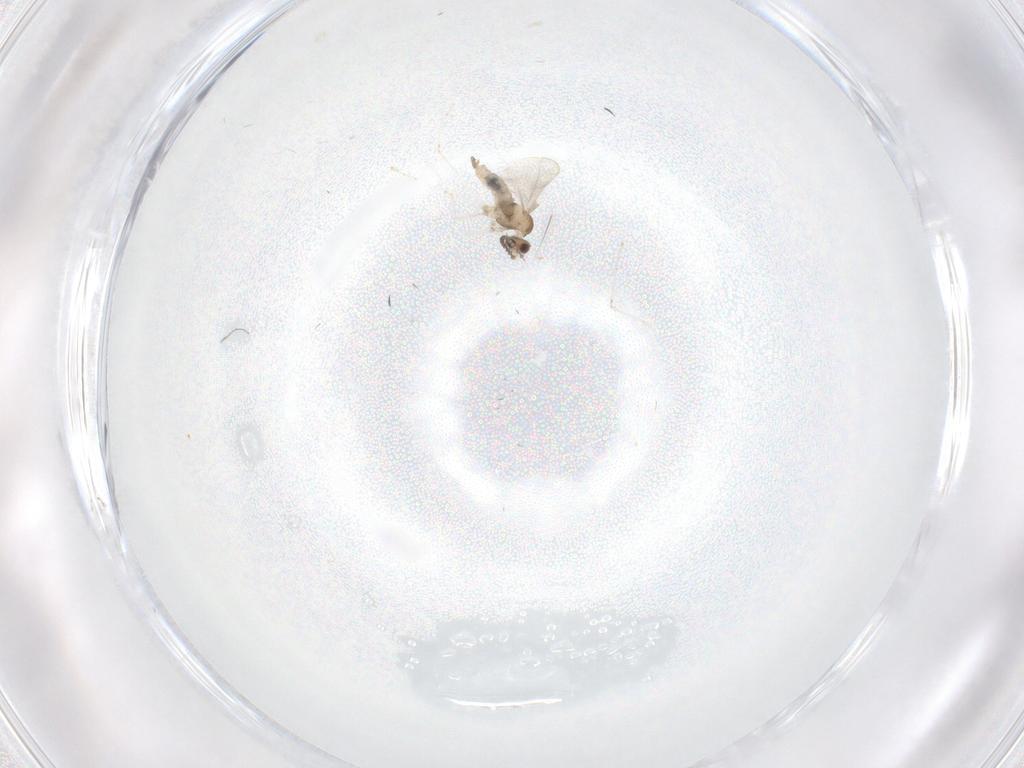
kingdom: Animalia
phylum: Arthropoda
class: Insecta
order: Diptera
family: Cecidomyiidae
